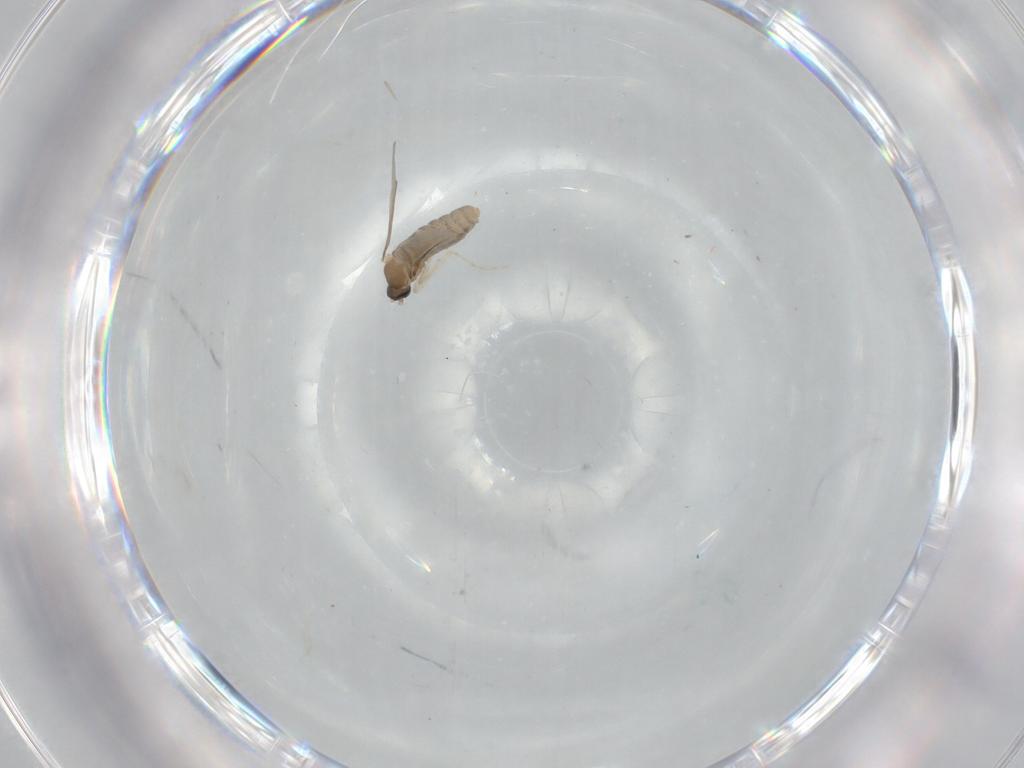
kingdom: Animalia
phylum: Arthropoda
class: Insecta
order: Diptera
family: Cecidomyiidae
